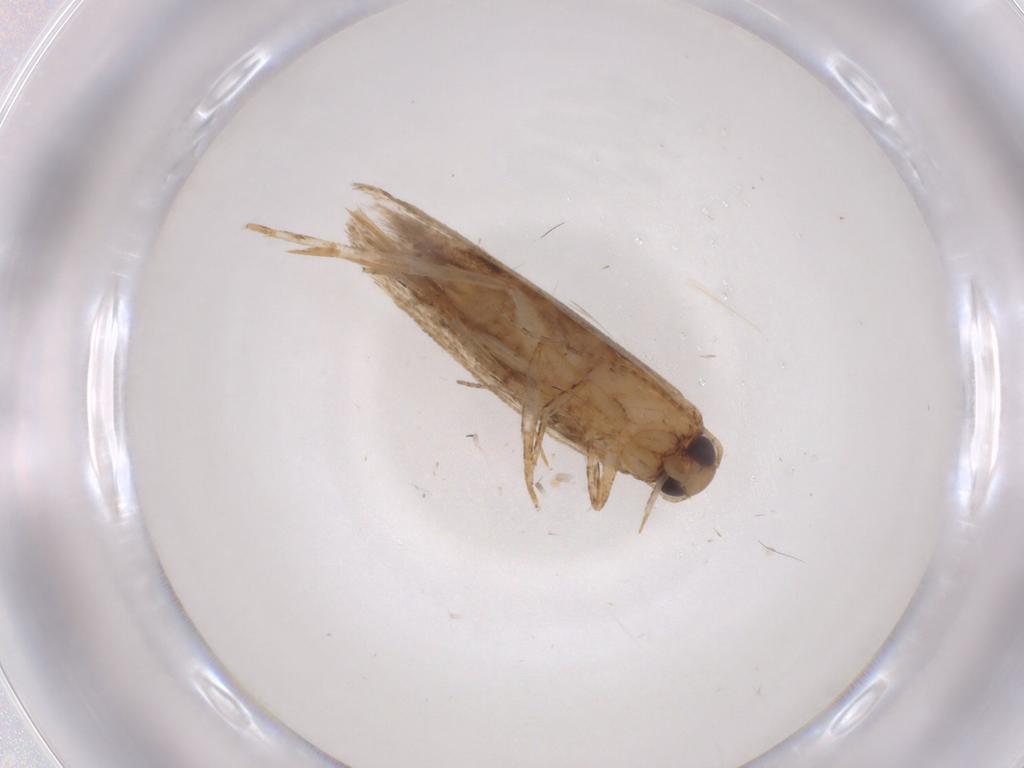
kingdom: Animalia
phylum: Arthropoda
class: Insecta
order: Lepidoptera
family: Gelechiidae
